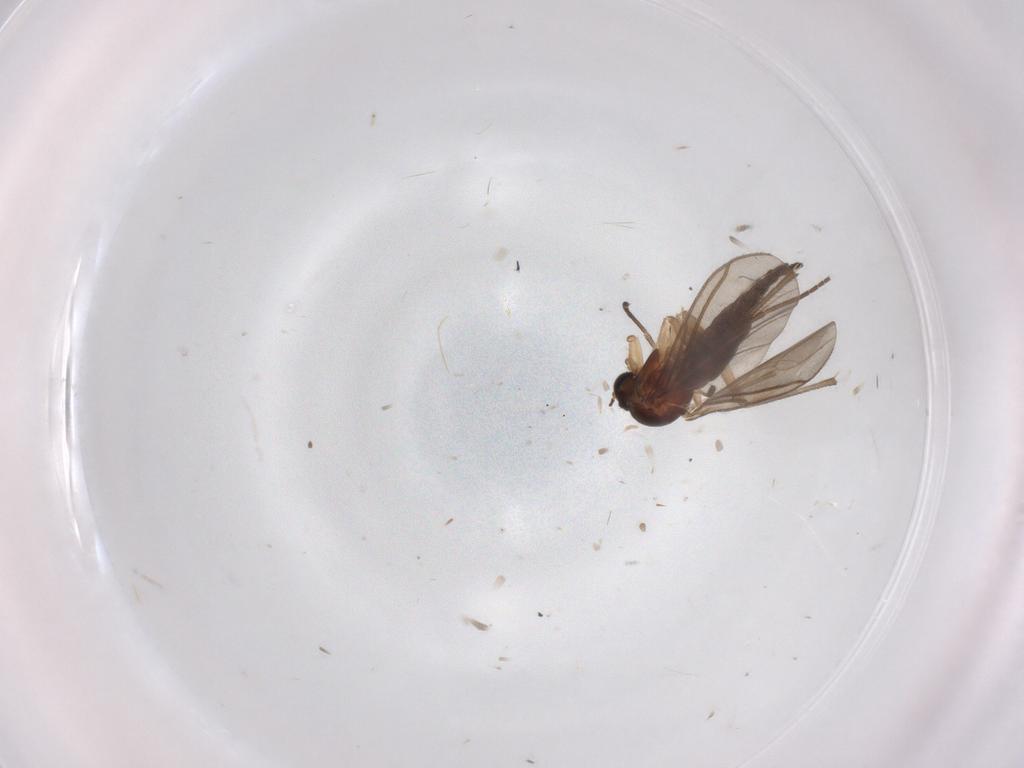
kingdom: Animalia
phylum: Arthropoda
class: Insecta
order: Diptera
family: Sciaridae
